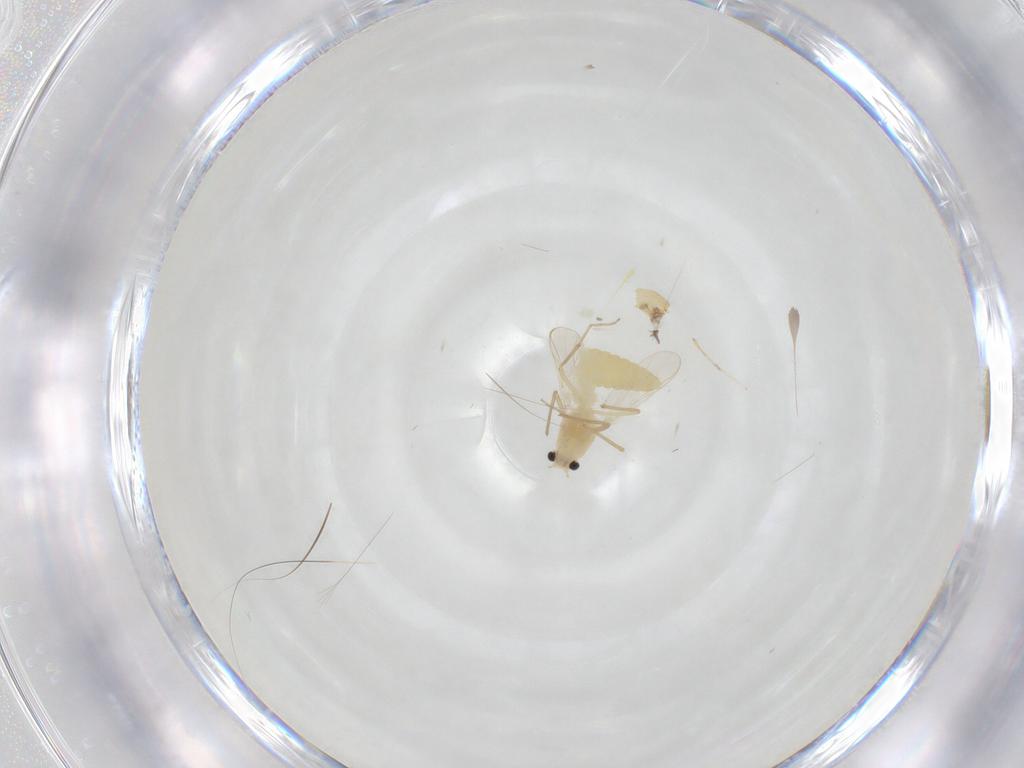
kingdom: Animalia
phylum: Arthropoda
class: Insecta
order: Diptera
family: Chironomidae
